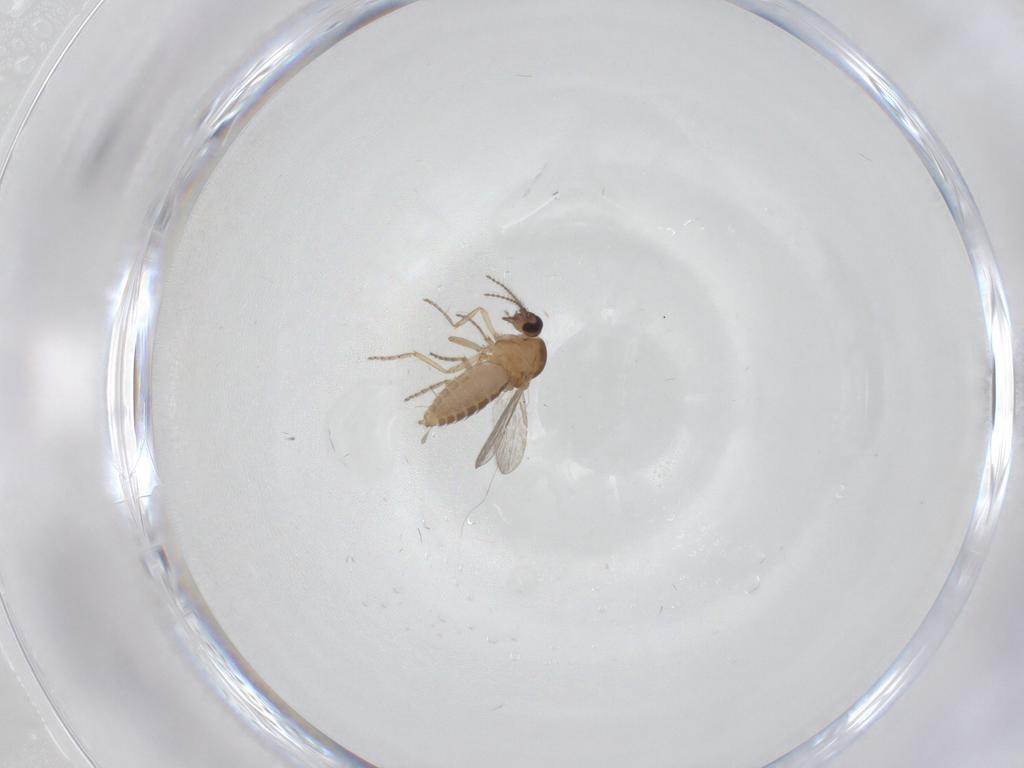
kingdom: Animalia
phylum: Arthropoda
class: Insecta
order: Diptera
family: Ceratopogonidae
